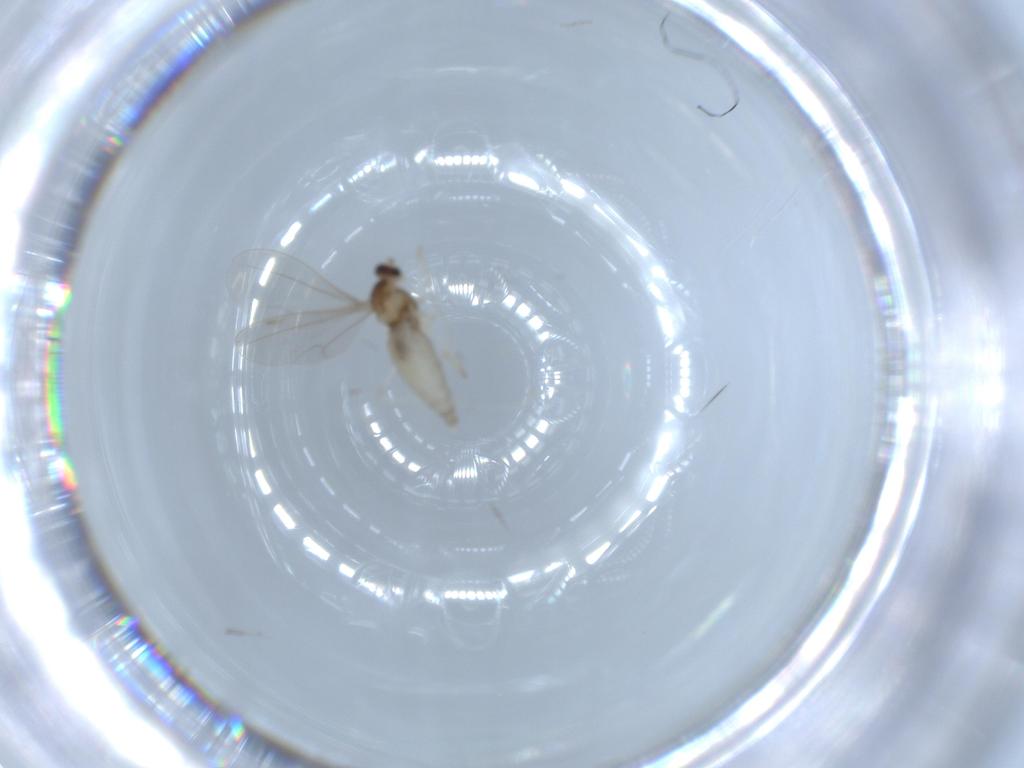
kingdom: Animalia
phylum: Arthropoda
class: Insecta
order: Diptera
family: Cecidomyiidae
